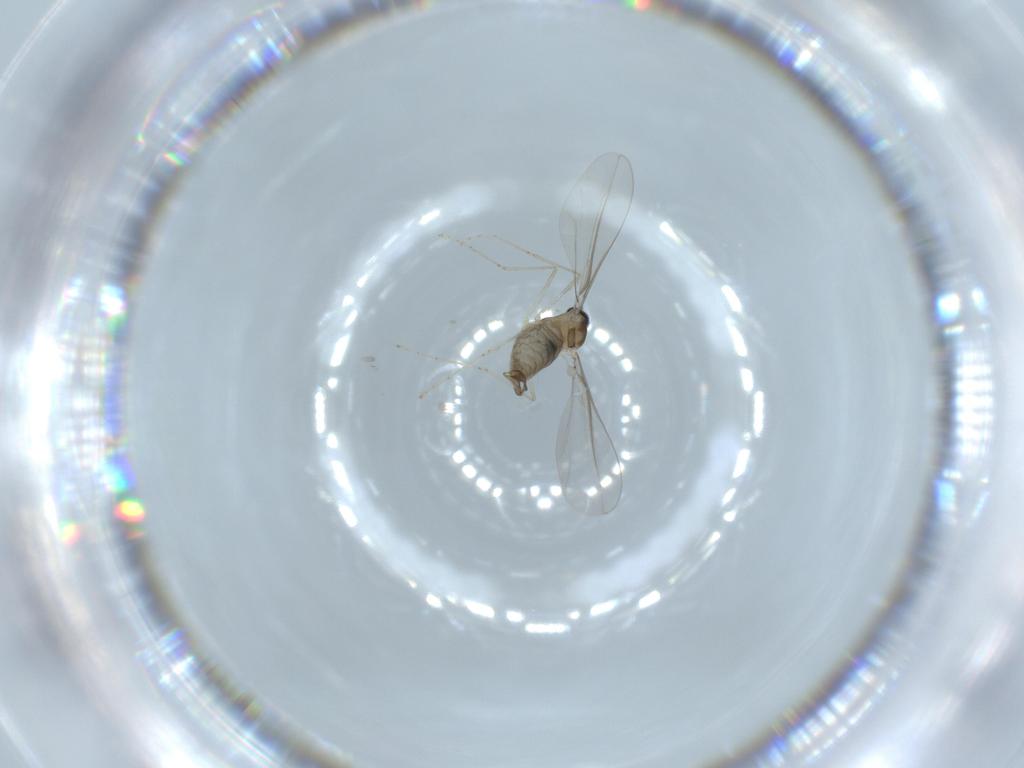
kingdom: Animalia
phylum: Arthropoda
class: Insecta
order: Diptera
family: Cecidomyiidae
